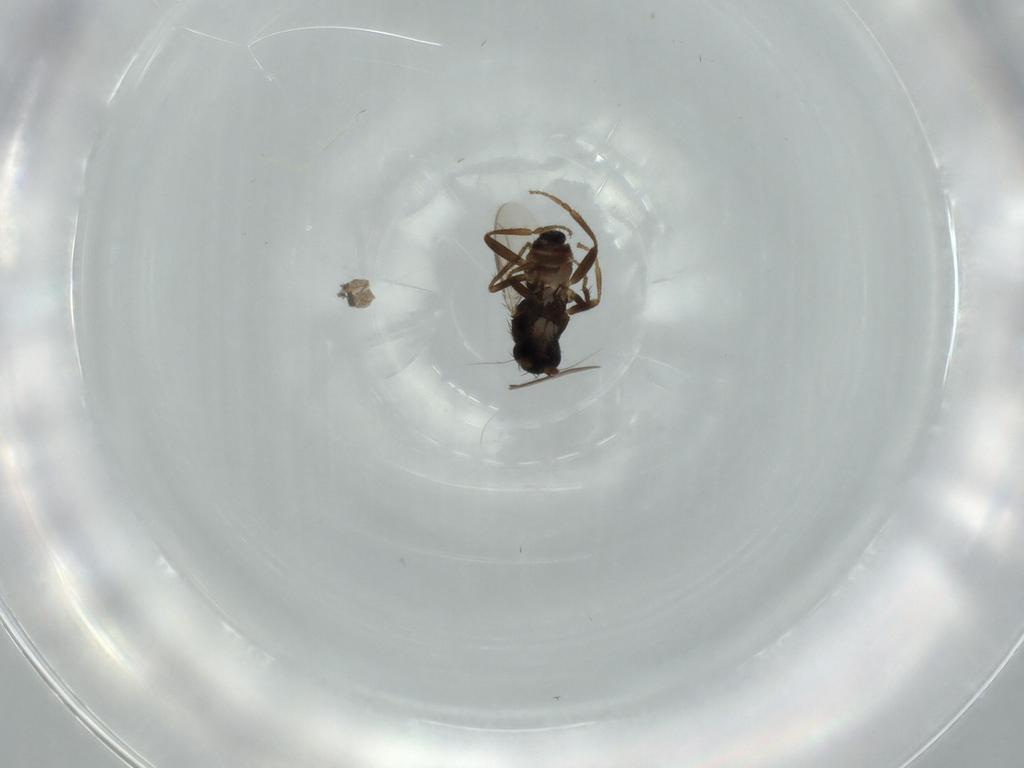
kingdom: Animalia
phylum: Arthropoda
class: Insecta
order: Diptera
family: Sphaeroceridae
